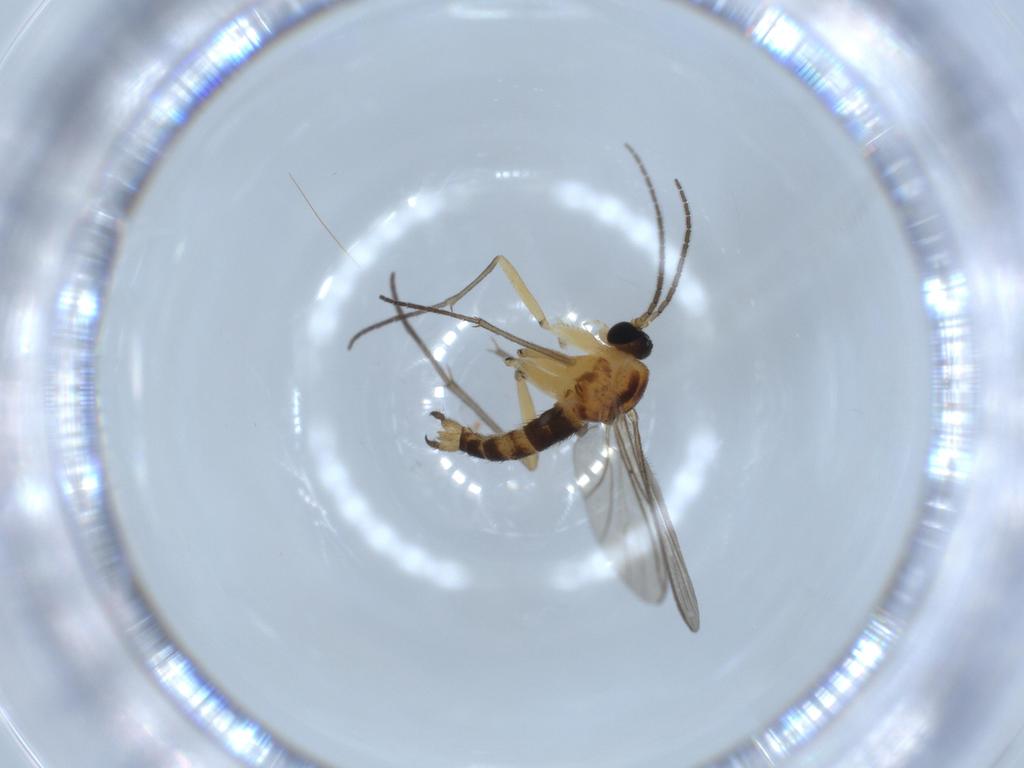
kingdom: Animalia
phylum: Arthropoda
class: Insecta
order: Diptera
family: Sciaridae
